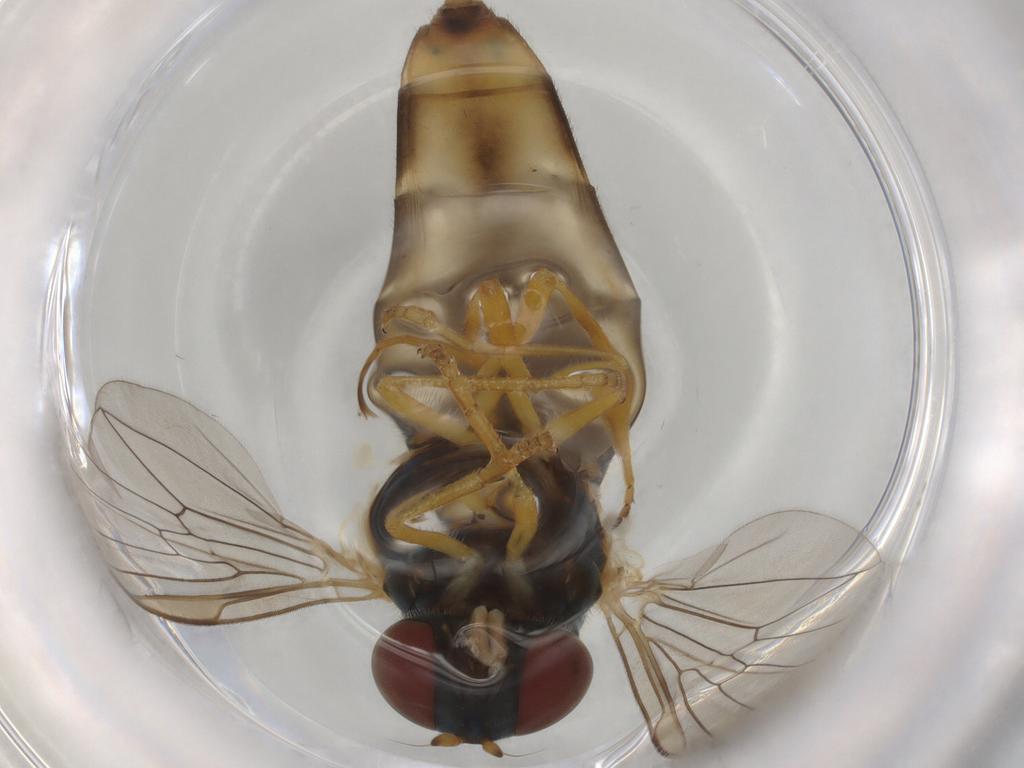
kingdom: Animalia
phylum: Arthropoda
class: Insecta
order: Diptera
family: Syrphidae
